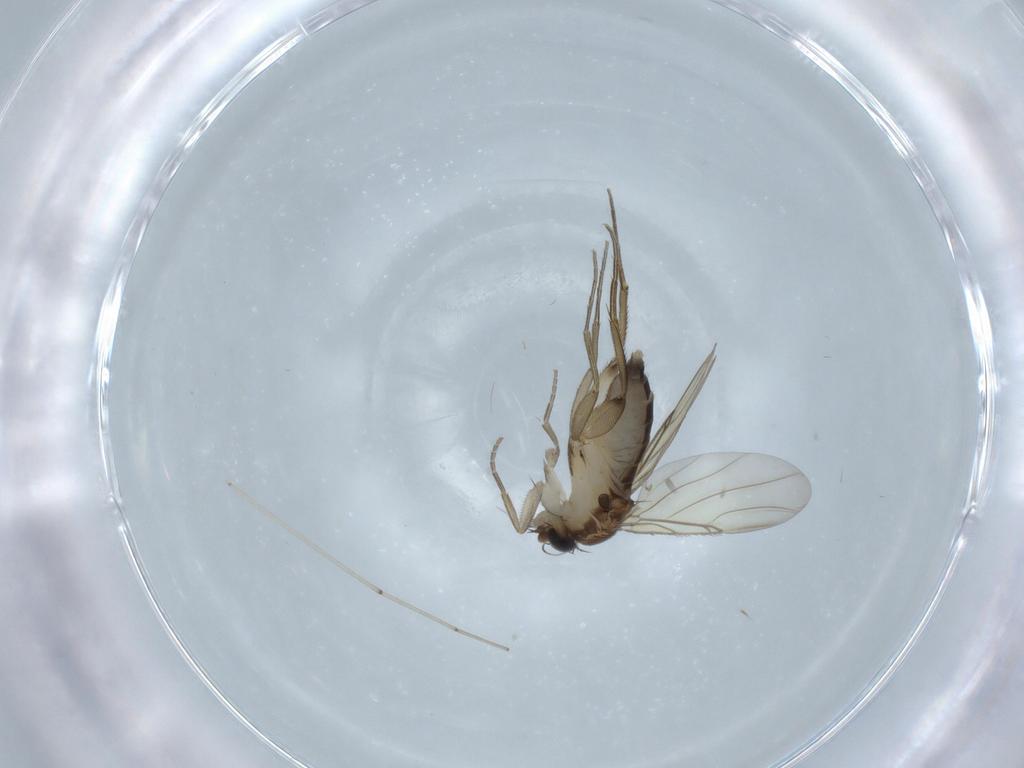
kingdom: Animalia
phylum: Arthropoda
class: Insecta
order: Diptera
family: Phoridae
